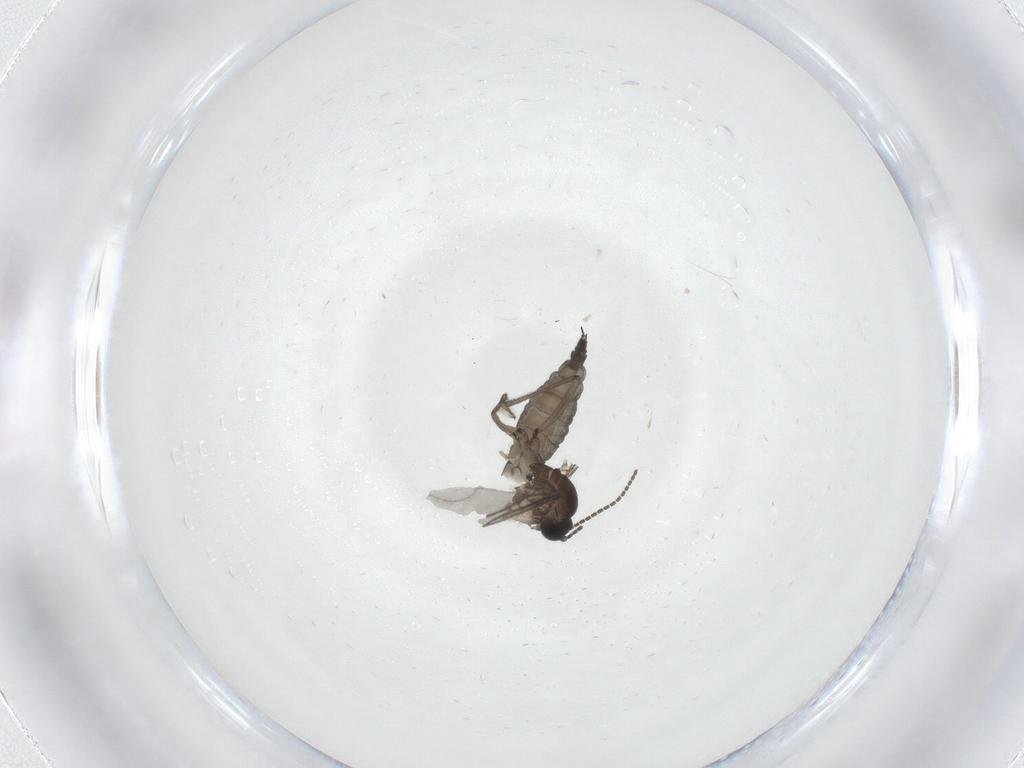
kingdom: Animalia
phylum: Arthropoda
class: Insecta
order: Diptera
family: Sciaridae
